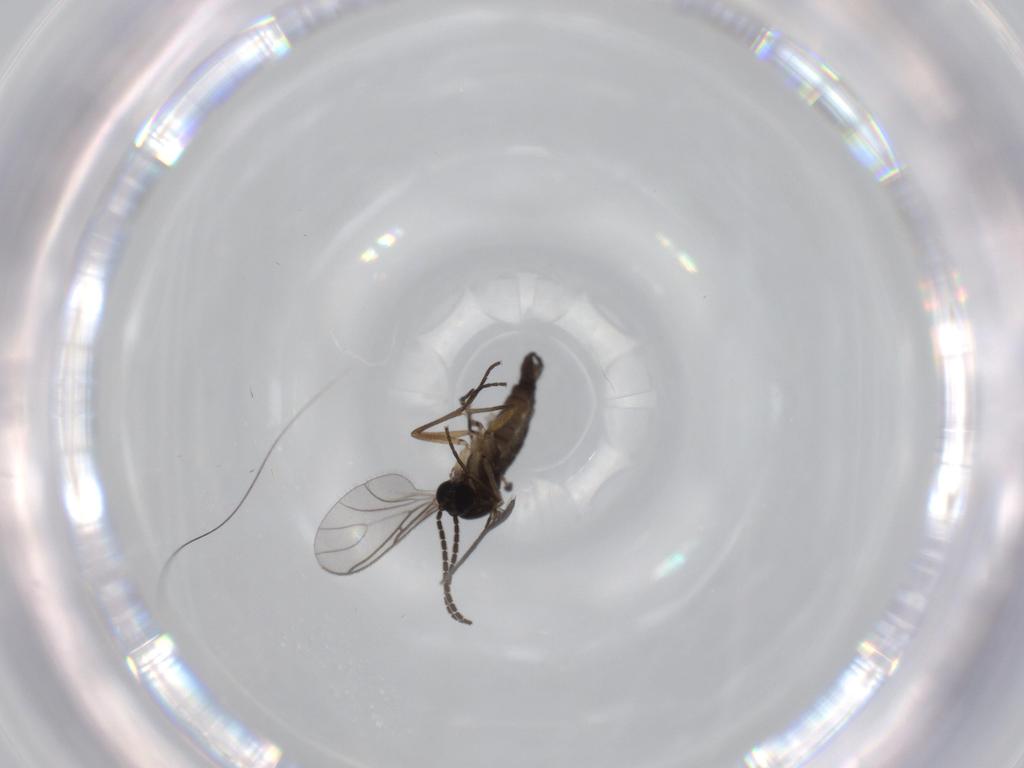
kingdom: Animalia
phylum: Arthropoda
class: Insecta
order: Diptera
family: Sciaridae
